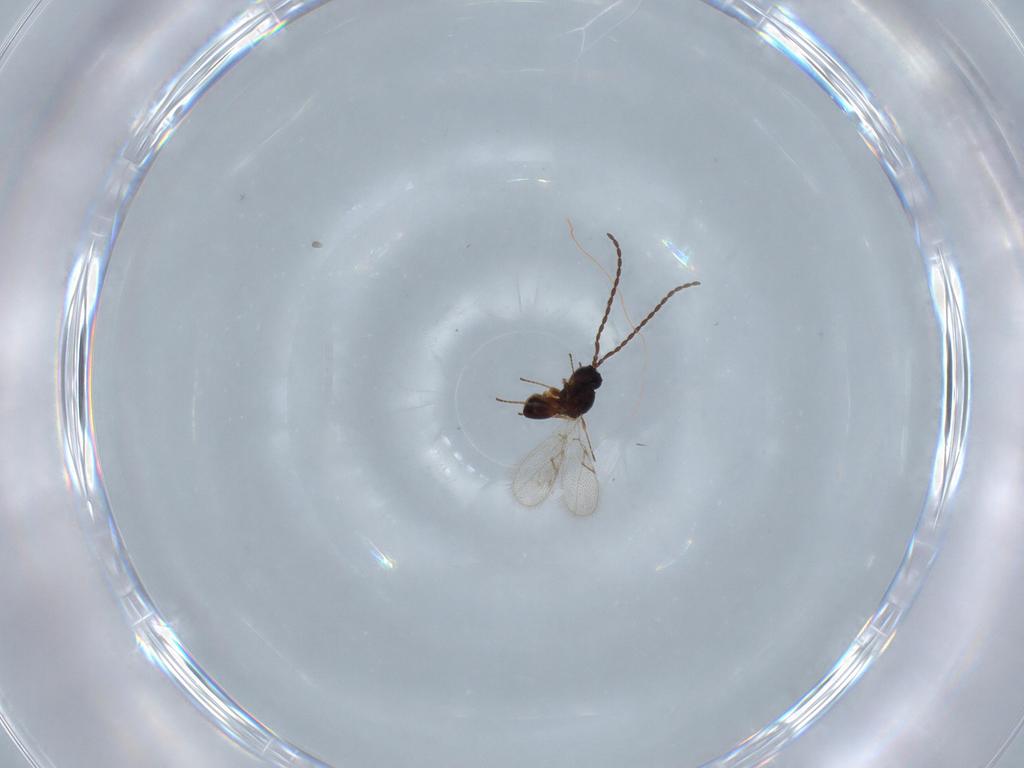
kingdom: Animalia
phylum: Arthropoda
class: Insecta
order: Hymenoptera
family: Figitidae
